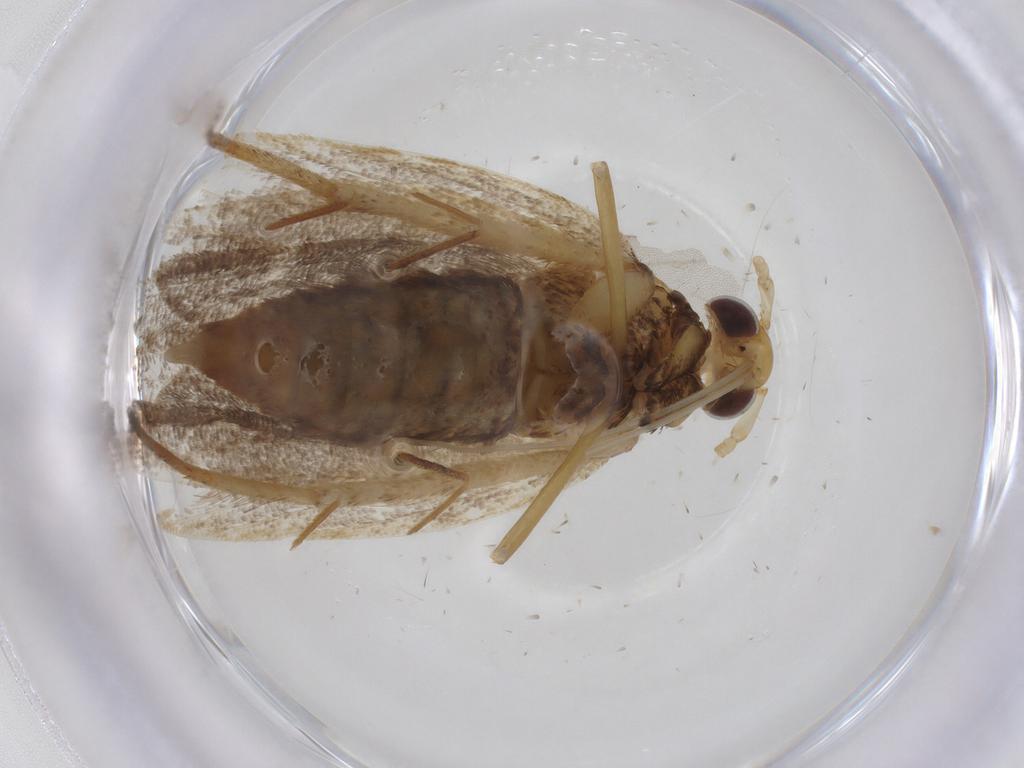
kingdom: Animalia
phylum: Arthropoda
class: Insecta
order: Lepidoptera
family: Lecithoceridae
